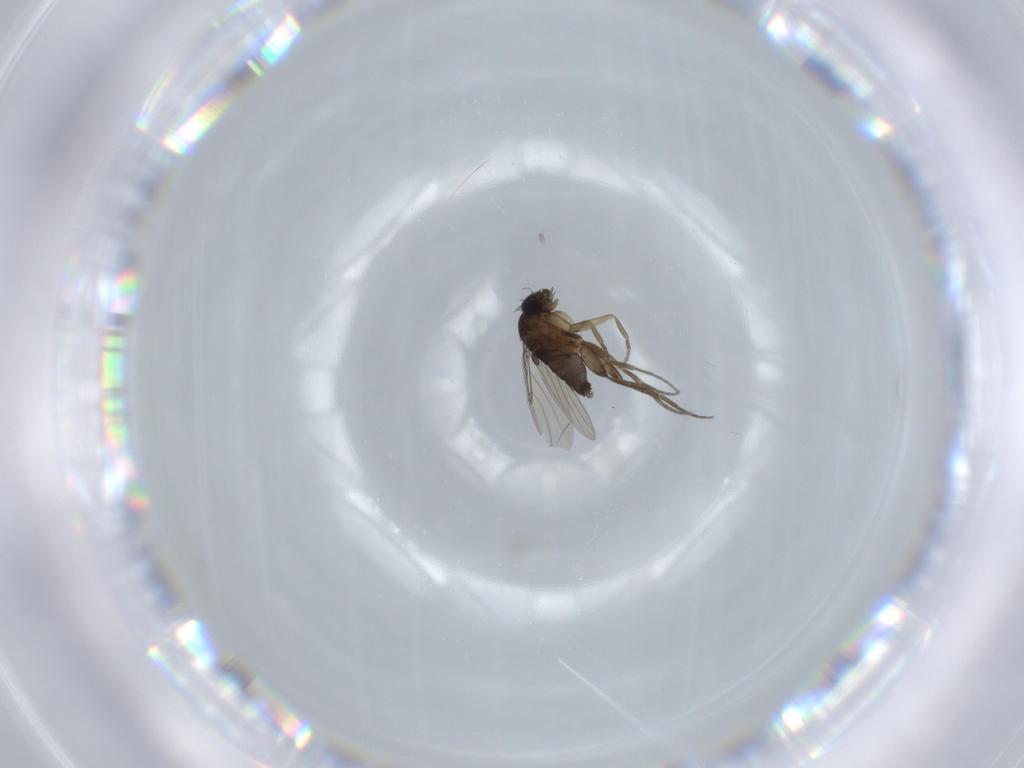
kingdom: Animalia
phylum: Arthropoda
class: Insecta
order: Diptera
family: Phoridae
